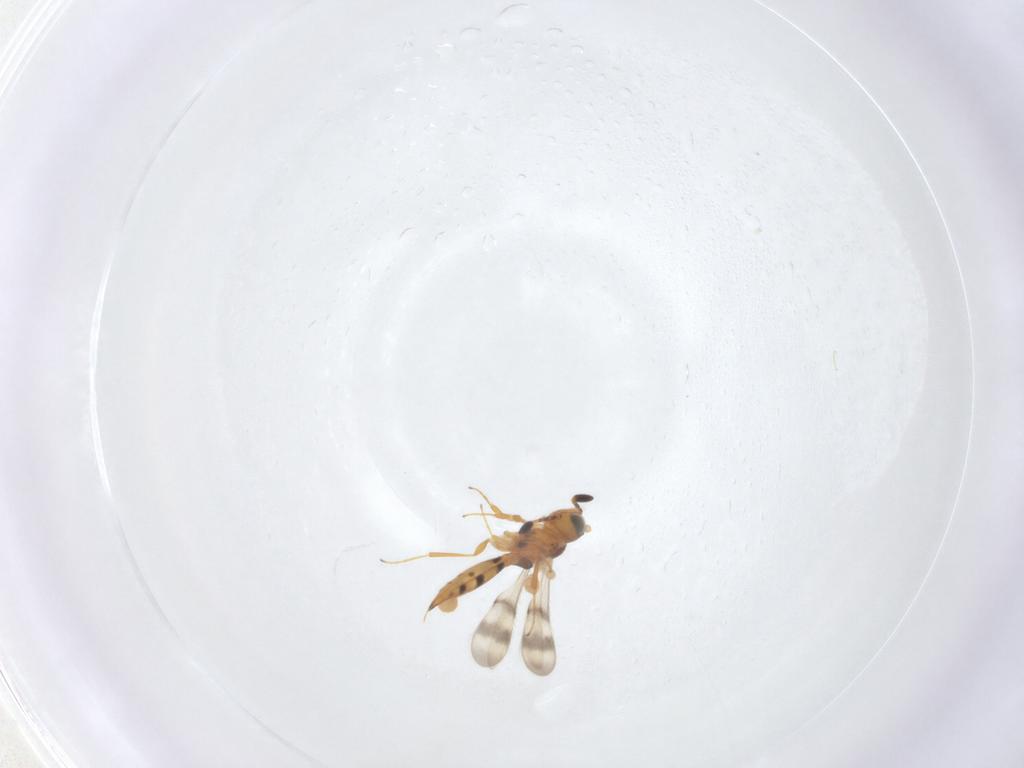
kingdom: Animalia
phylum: Arthropoda
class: Insecta
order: Hymenoptera
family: Scelionidae
